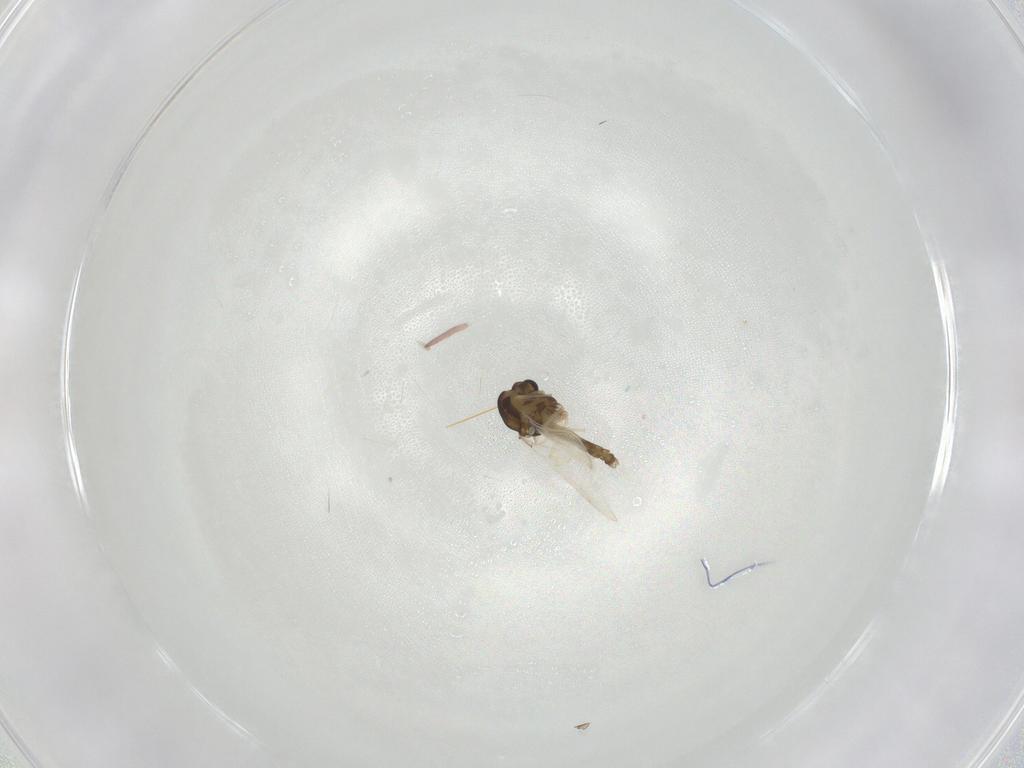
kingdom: Animalia
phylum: Arthropoda
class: Insecta
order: Diptera
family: Chironomidae
